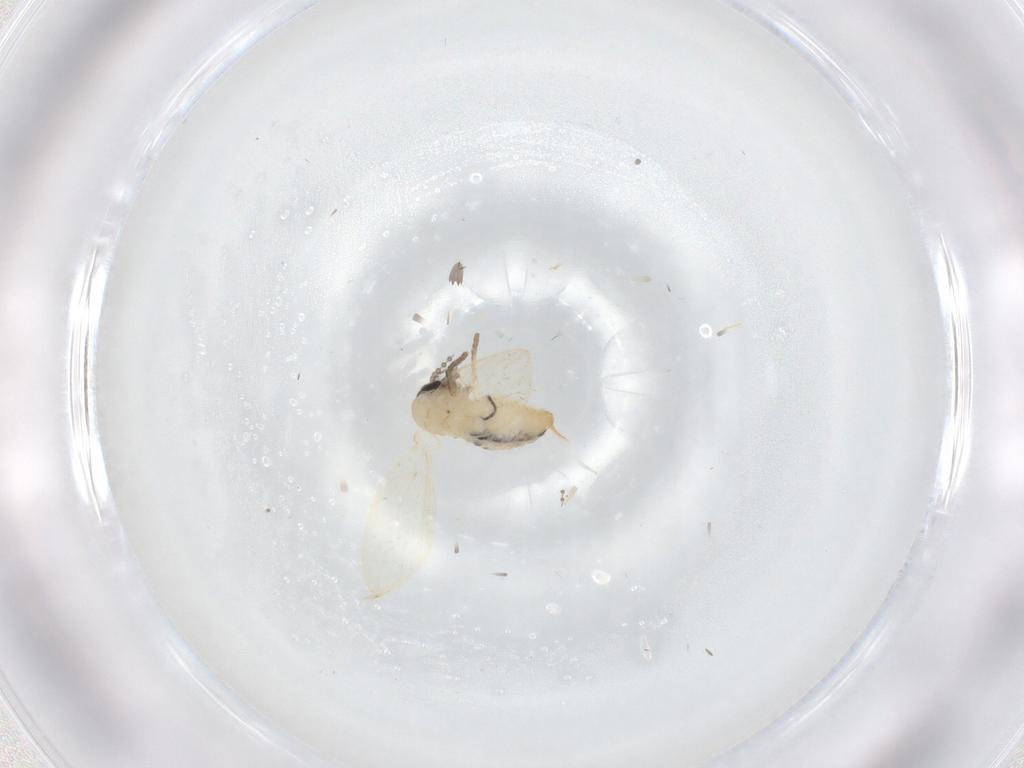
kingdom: Animalia
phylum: Arthropoda
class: Insecta
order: Diptera
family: Psychodidae
